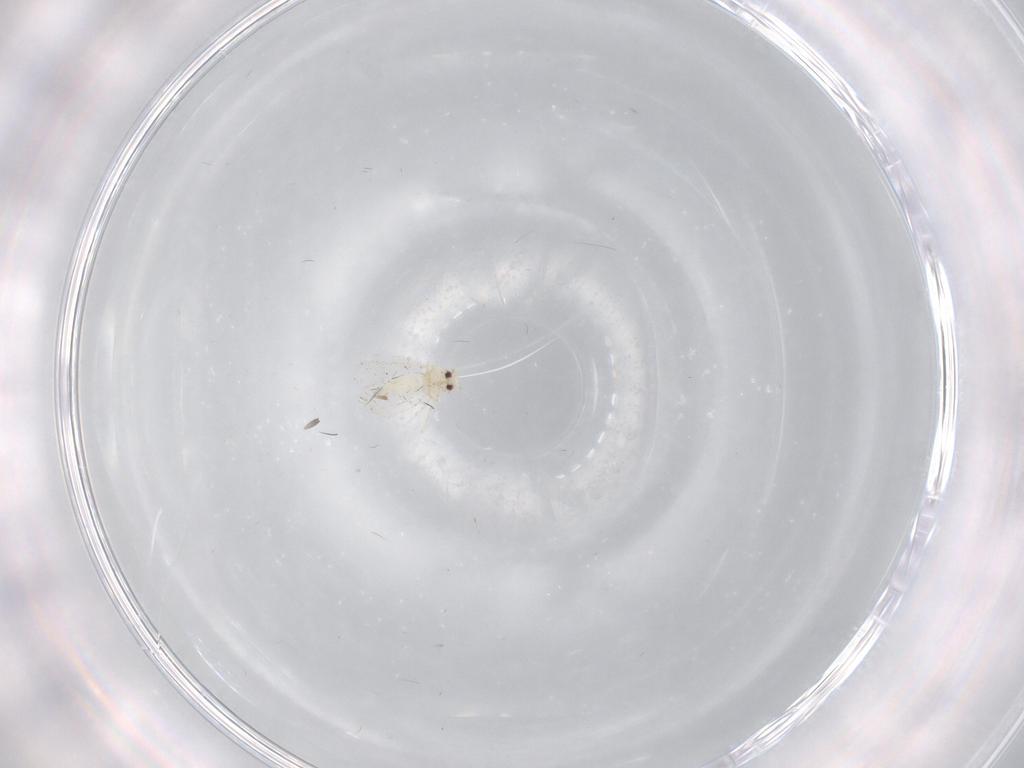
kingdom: Animalia
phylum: Arthropoda
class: Insecta
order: Hemiptera
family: Aleyrodidae
